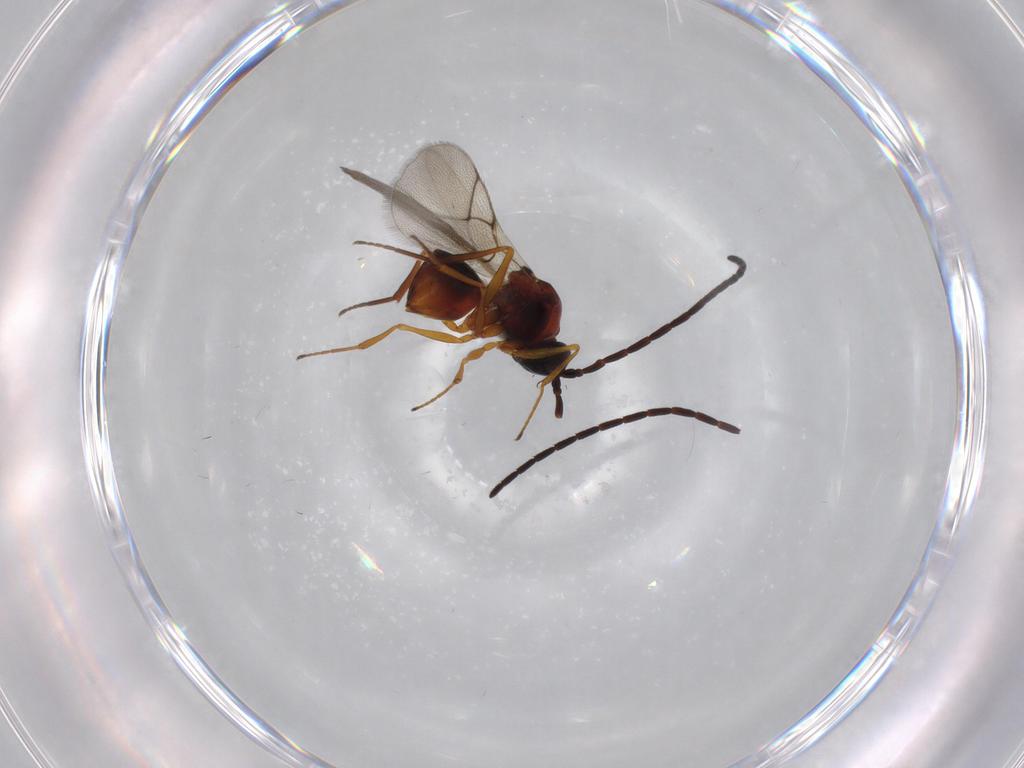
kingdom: Animalia
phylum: Arthropoda
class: Insecta
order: Hymenoptera
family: Figitidae
